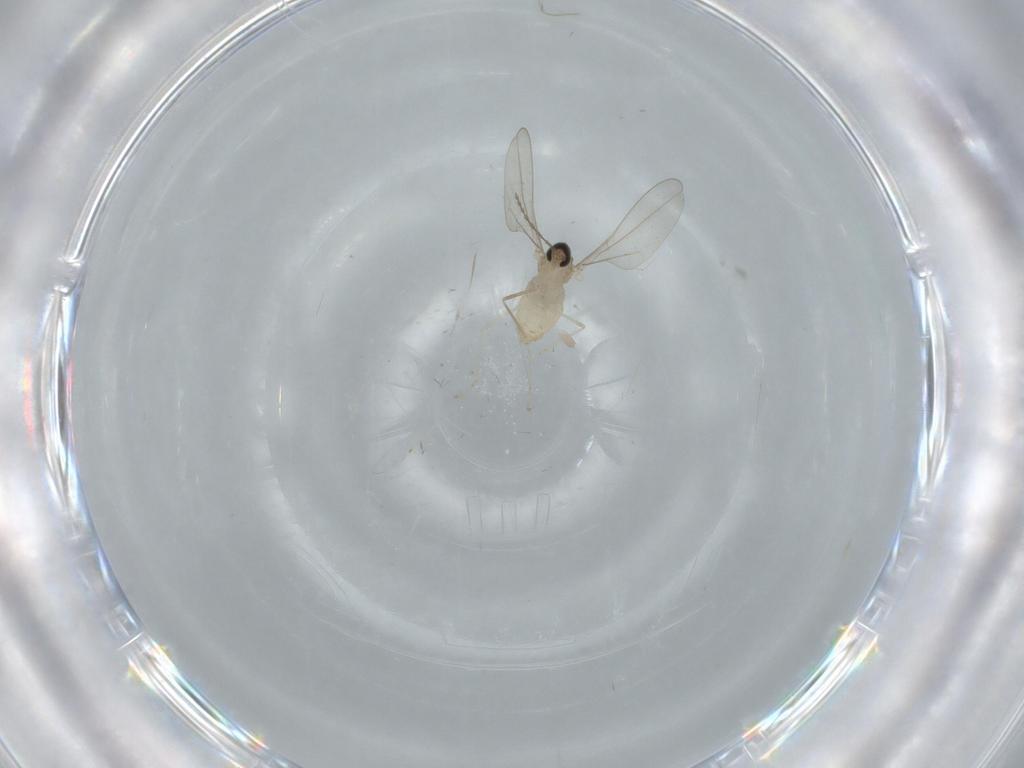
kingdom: Animalia
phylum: Arthropoda
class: Insecta
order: Diptera
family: Cecidomyiidae
